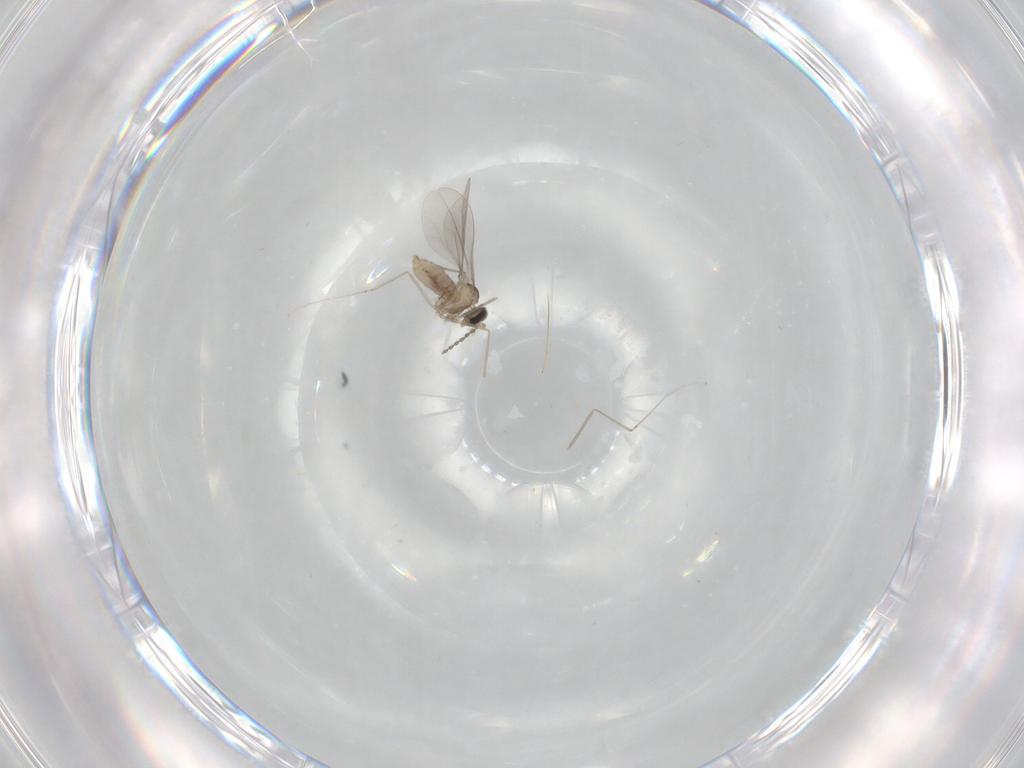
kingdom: Animalia
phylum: Arthropoda
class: Insecta
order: Diptera
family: Cecidomyiidae
